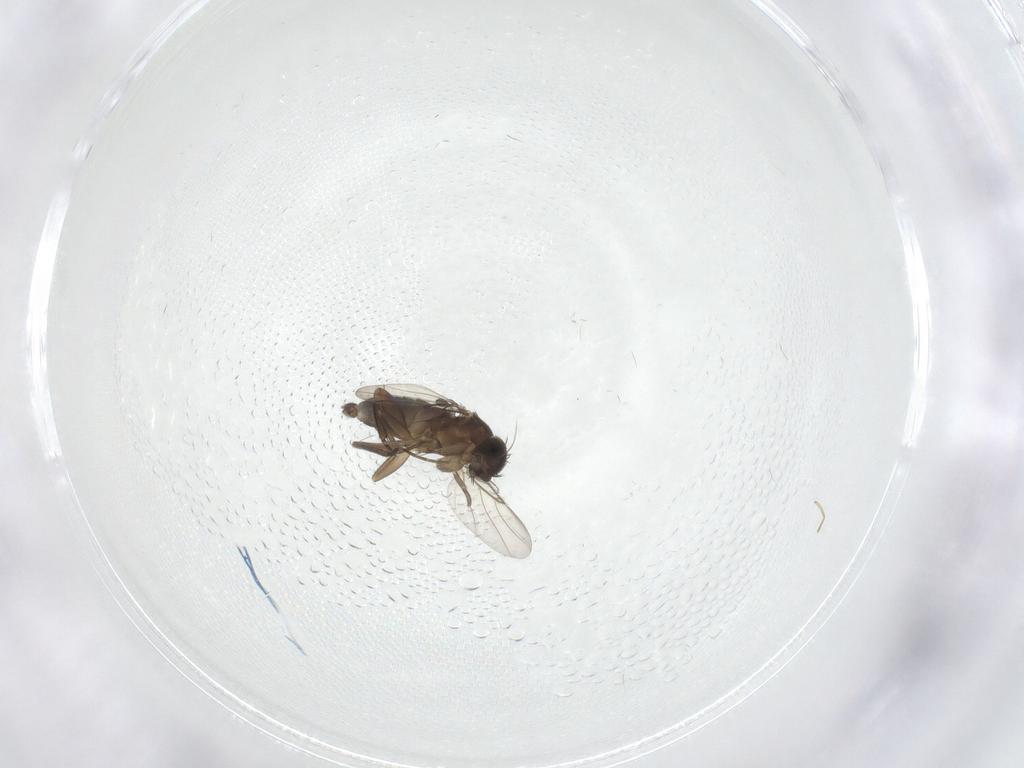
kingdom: Animalia
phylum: Arthropoda
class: Insecta
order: Diptera
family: Phoridae
